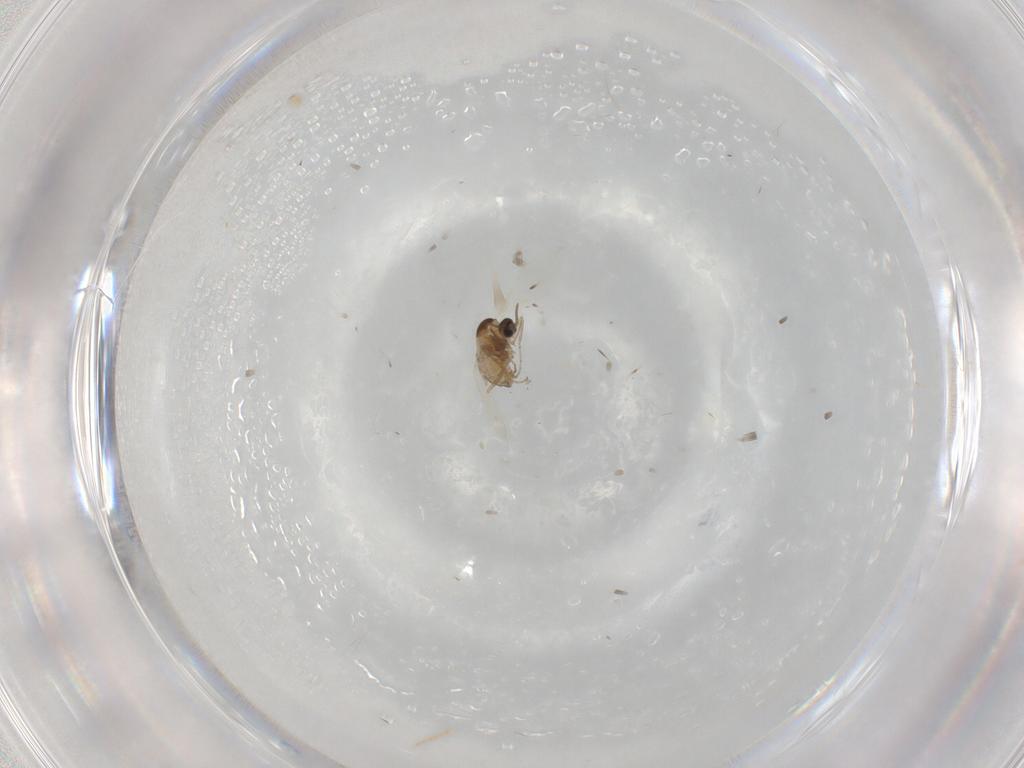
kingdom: Animalia
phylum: Arthropoda
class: Insecta
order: Diptera
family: Cecidomyiidae
